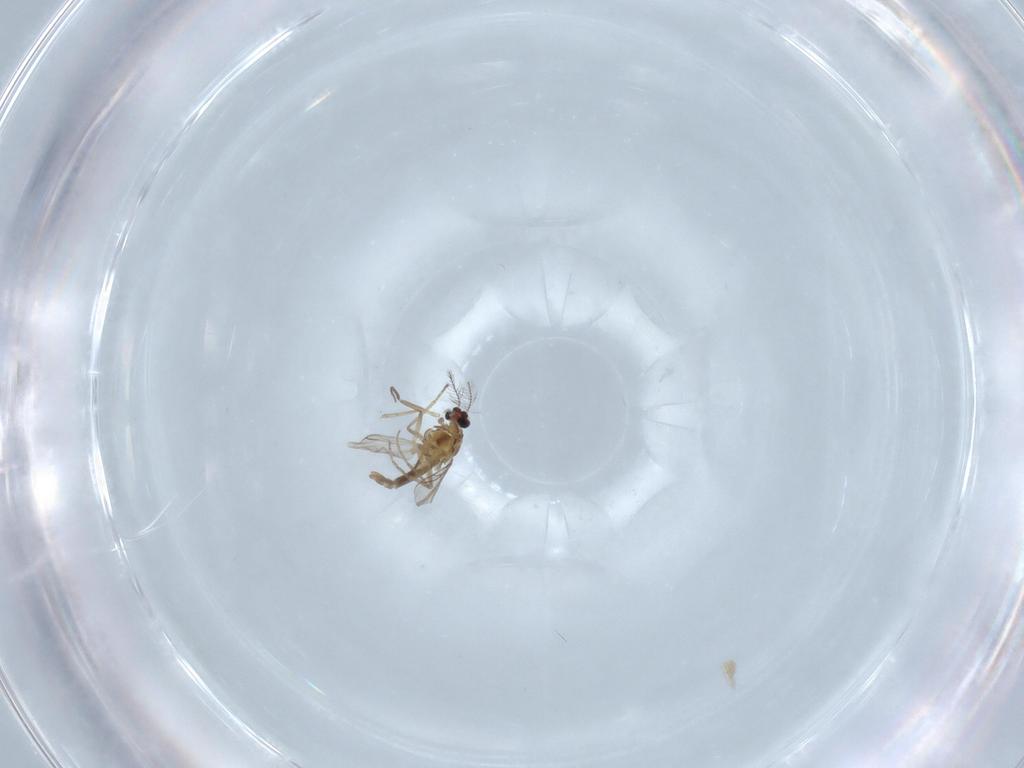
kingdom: Animalia
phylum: Arthropoda
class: Insecta
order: Diptera
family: Chironomidae
